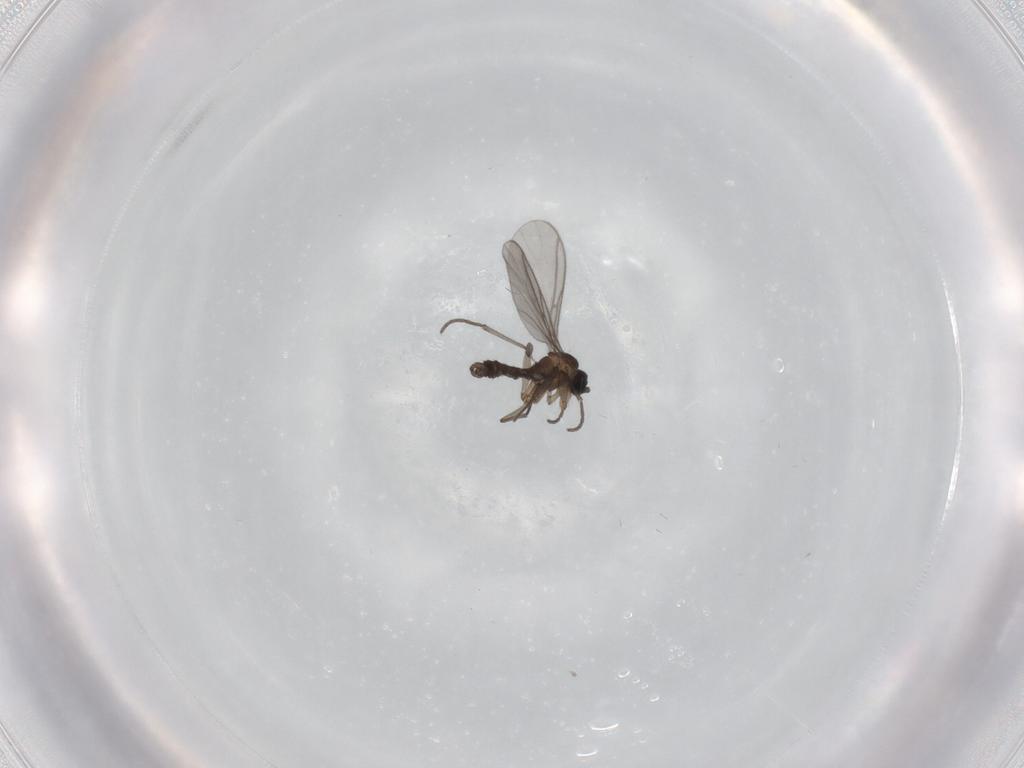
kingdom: Animalia
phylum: Arthropoda
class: Insecta
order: Diptera
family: Sciaridae
